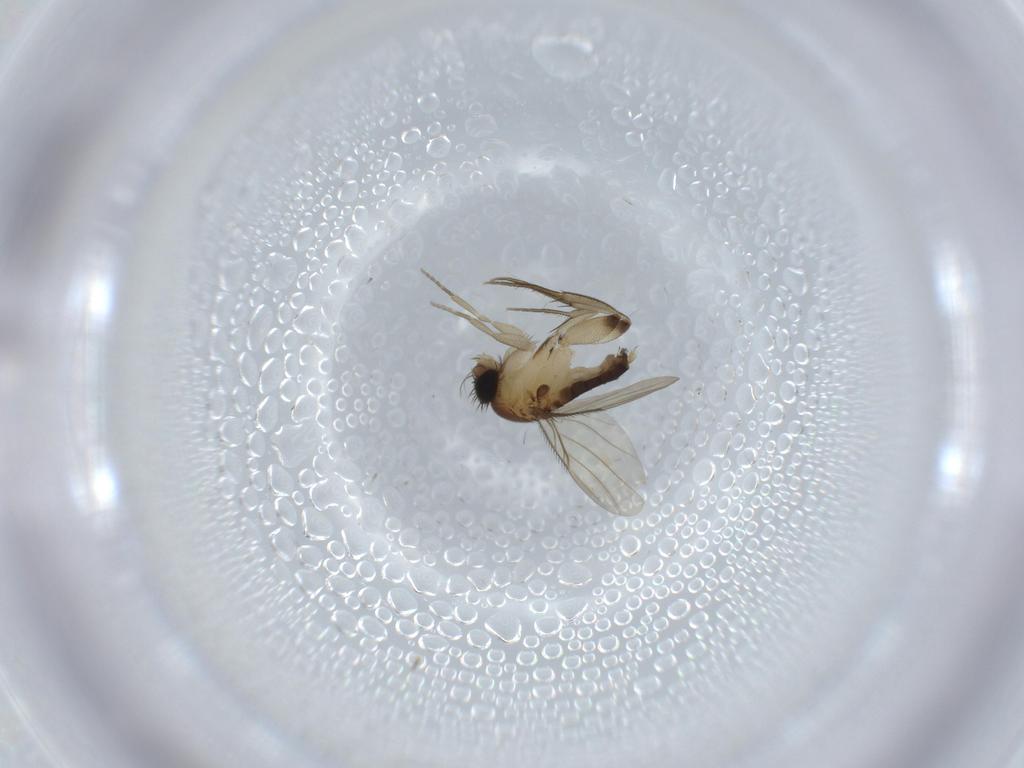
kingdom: Animalia
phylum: Arthropoda
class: Insecta
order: Diptera
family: Phoridae
